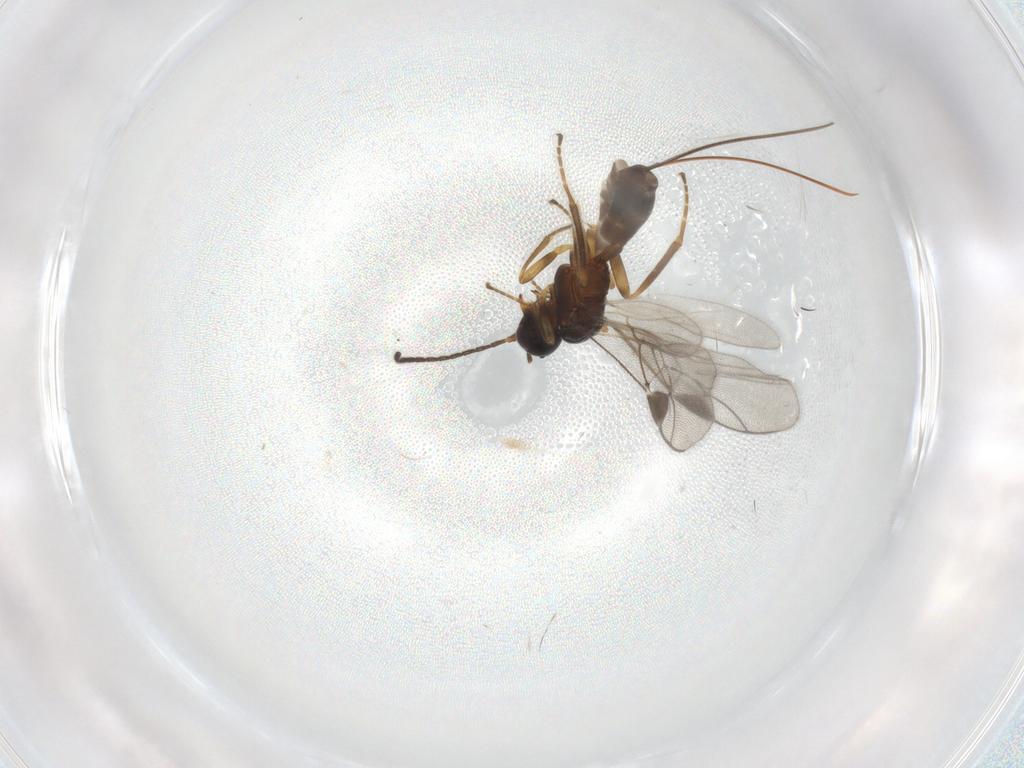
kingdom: Animalia
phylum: Arthropoda
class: Insecta
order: Hymenoptera
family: Braconidae
